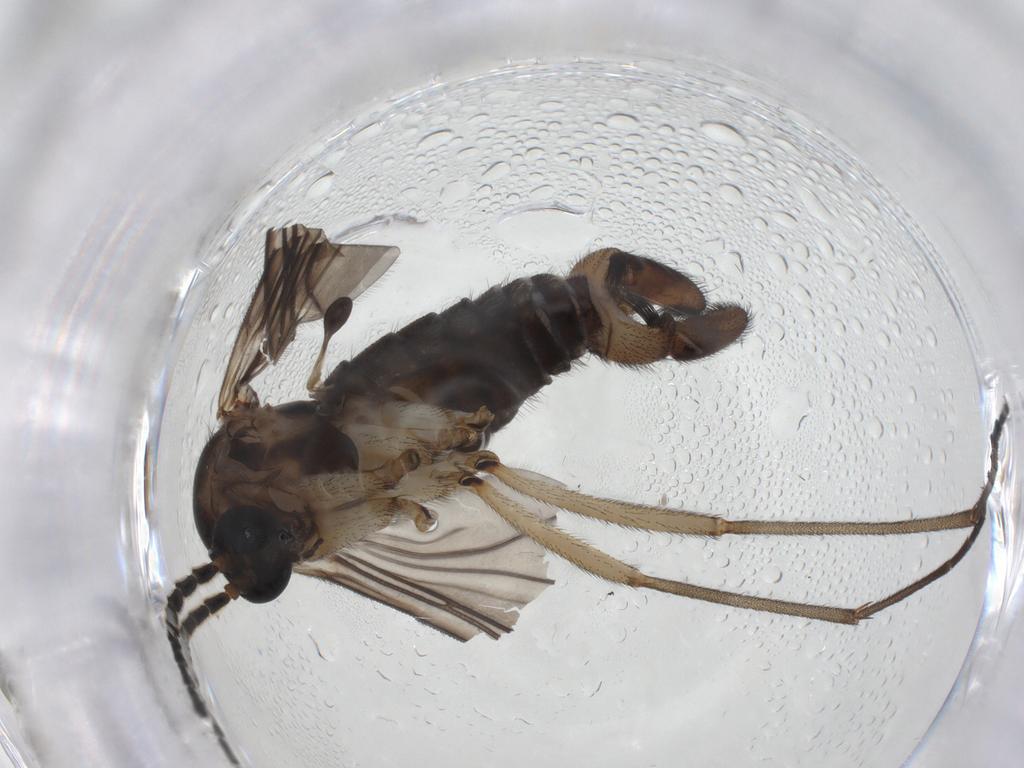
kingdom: Animalia
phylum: Arthropoda
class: Insecta
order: Diptera
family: Sciaridae
